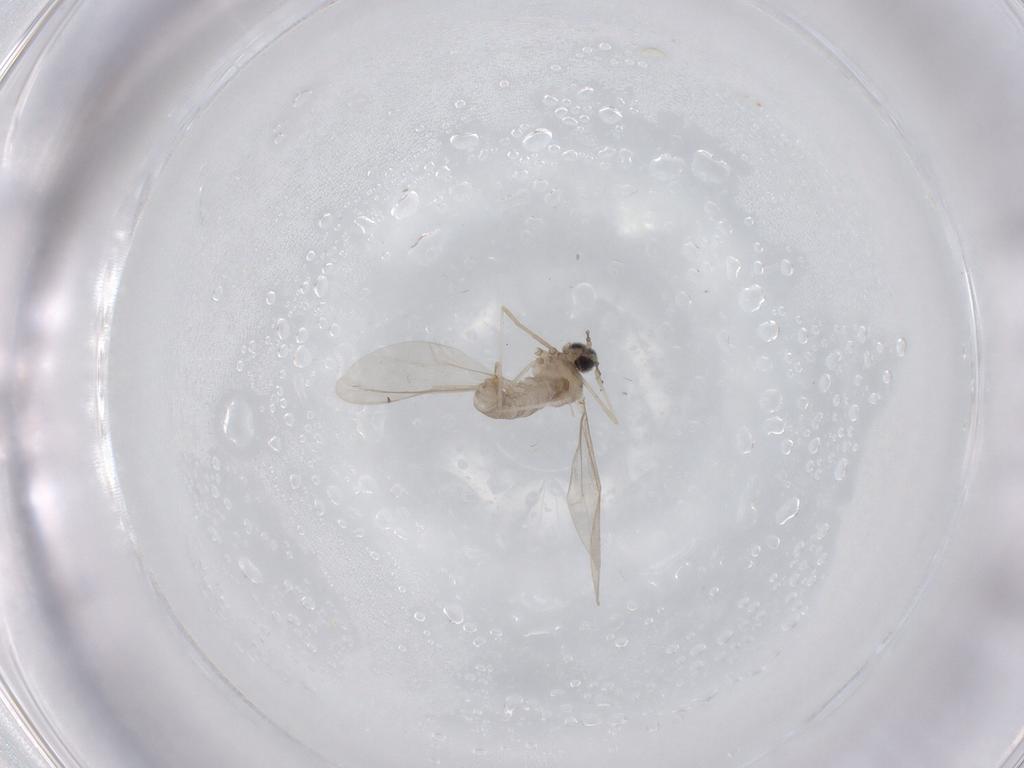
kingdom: Animalia
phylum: Arthropoda
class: Insecta
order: Diptera
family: Cecidomyiidae
